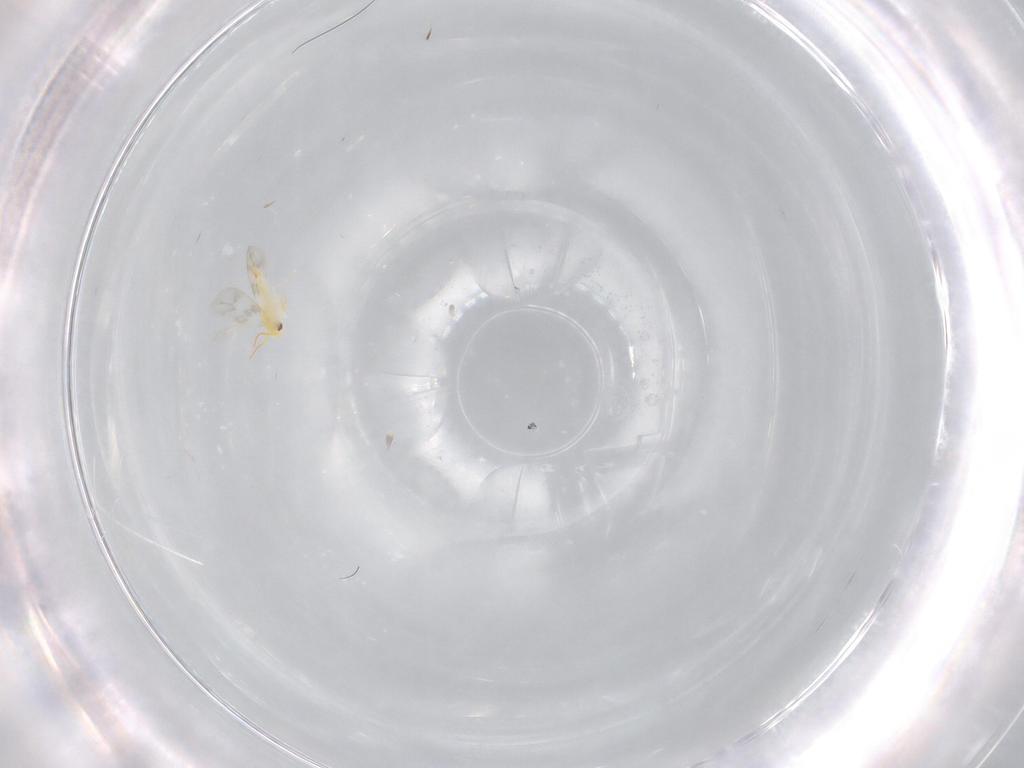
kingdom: Animalia
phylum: Arthropoda
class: Insecta
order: Hemiptera
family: Aleyrodidae
